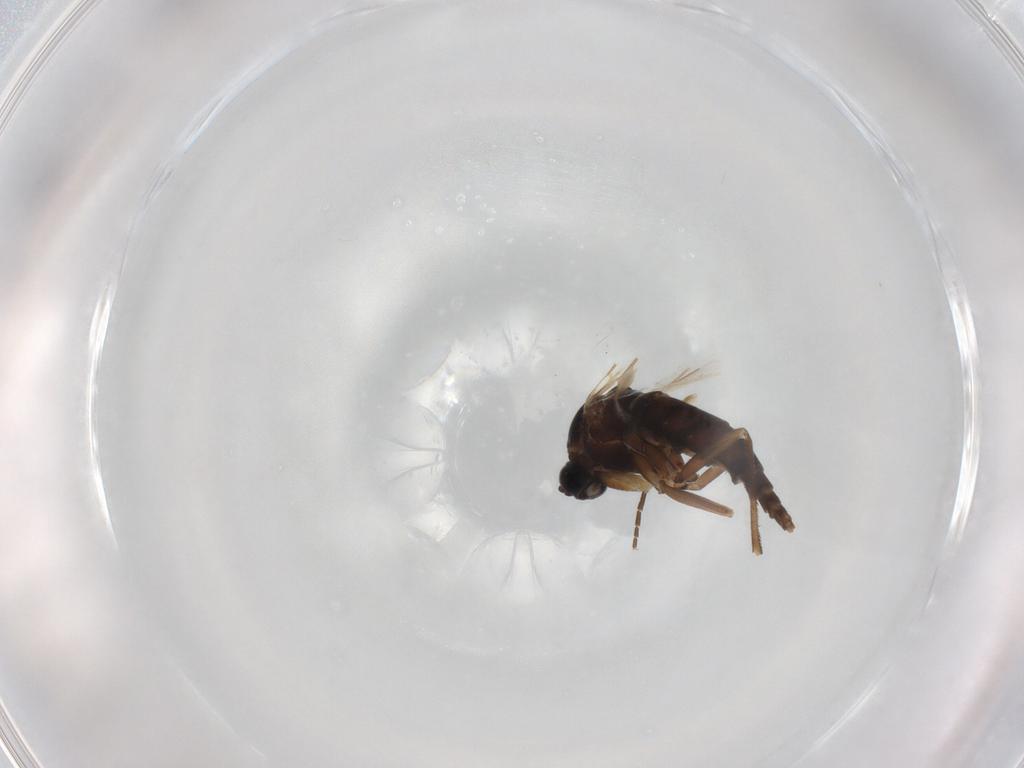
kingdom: Animalia
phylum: Arthropoda
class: Insecta
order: Diptera
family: Sciaridae
